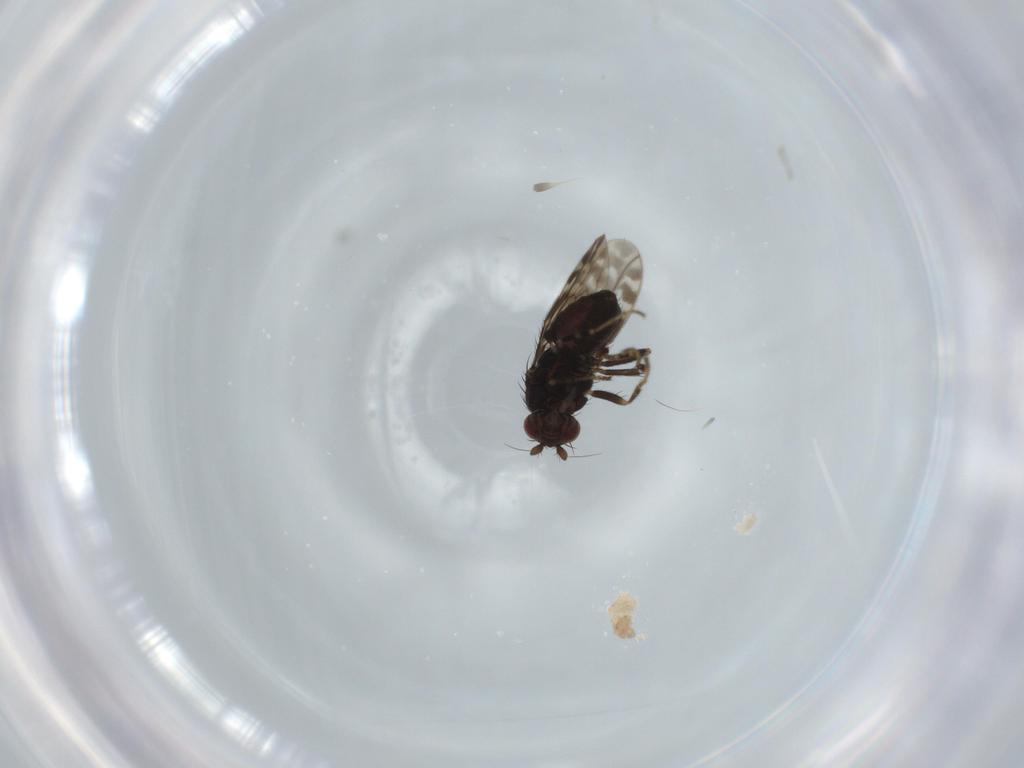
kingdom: Animalia
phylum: Arthropoda
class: Insecta
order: Diptera
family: Sphaeroceridae
